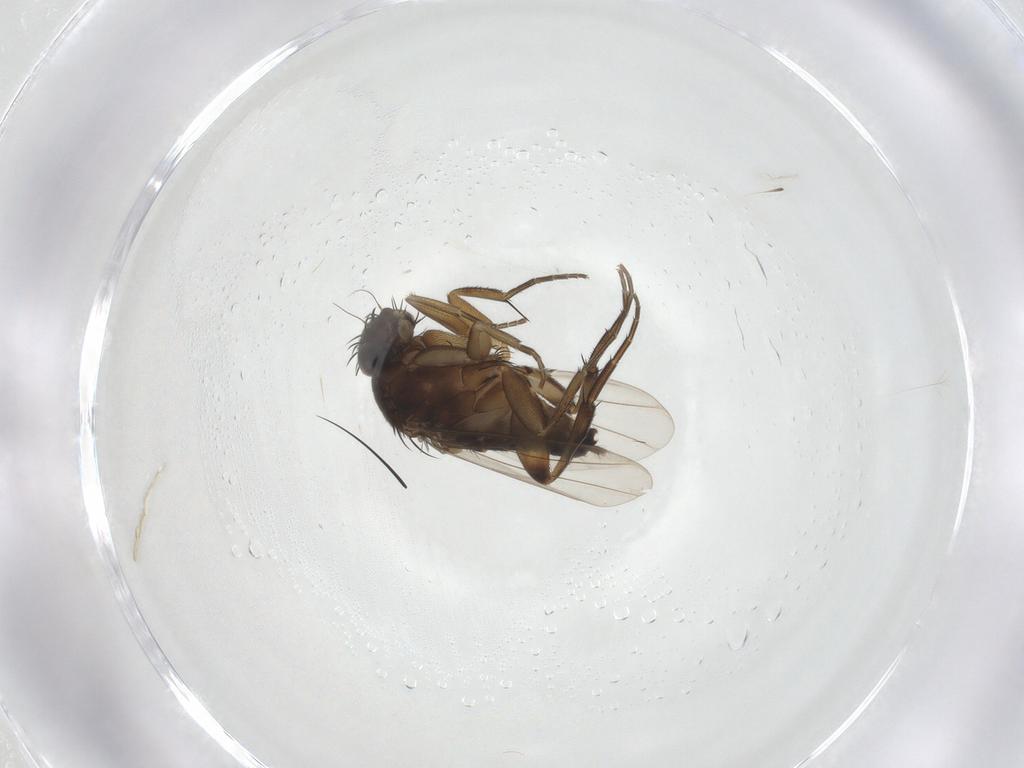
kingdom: Animalia
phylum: Arthropoda
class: Insecta
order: Diptera
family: Phoridae
